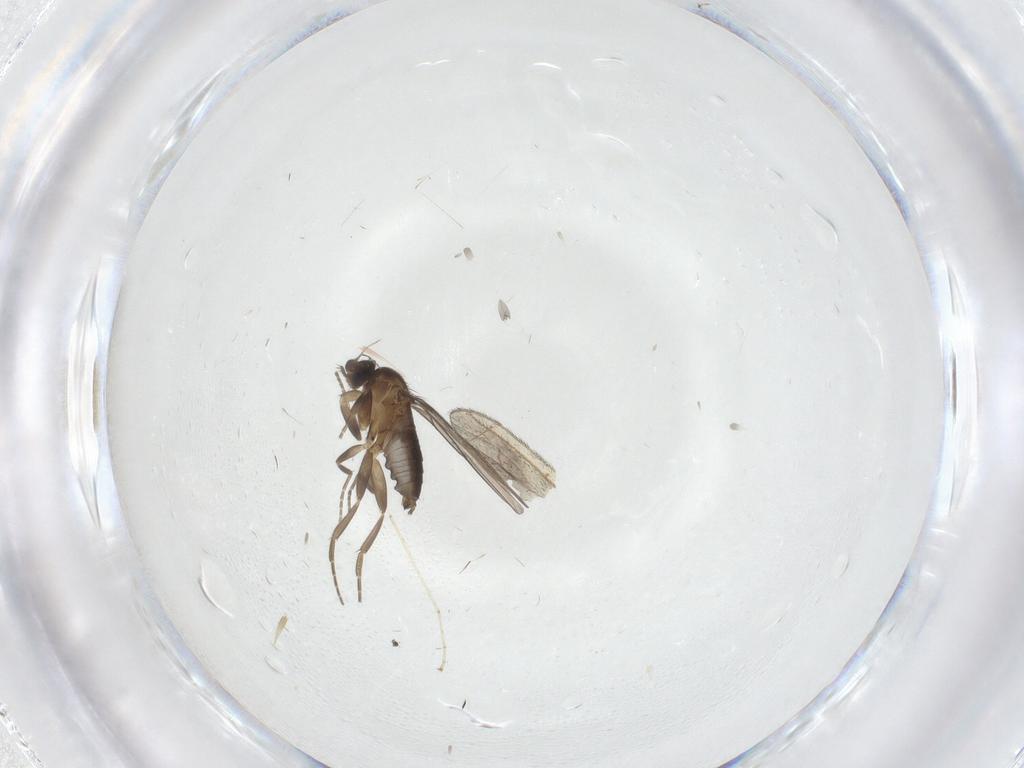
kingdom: Animalia
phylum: Arthropoda
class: Insecta
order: Diptera
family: Sciaridae
